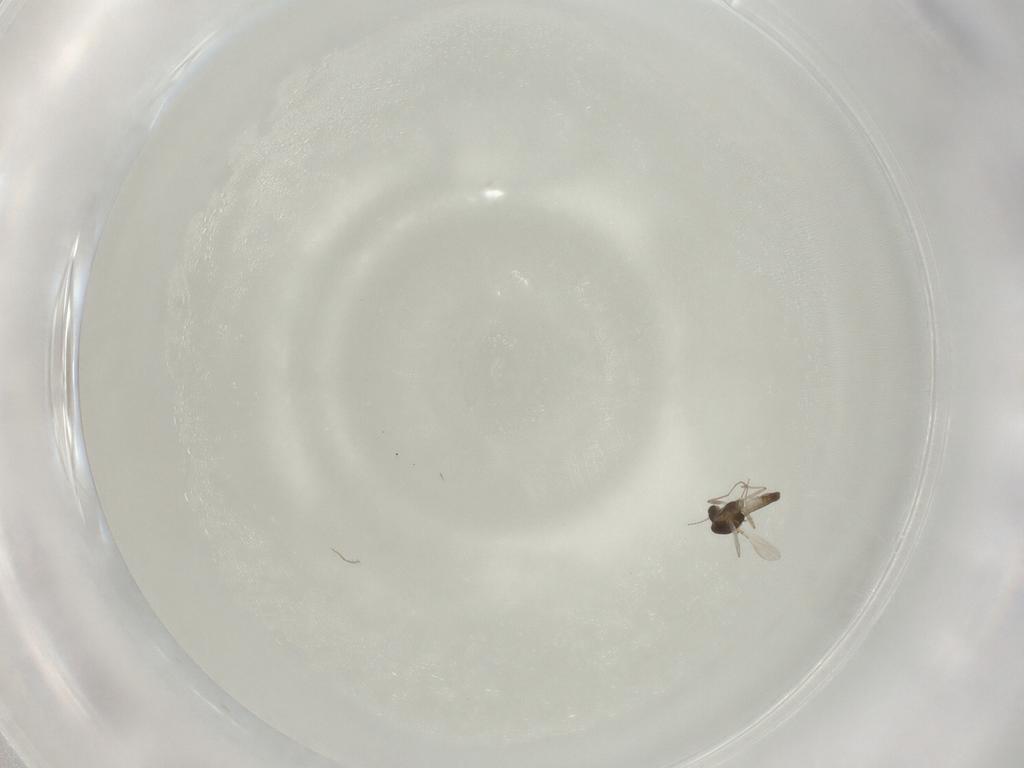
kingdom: Animalia
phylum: Arthropoda
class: Insecta
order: Diptera
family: Chironomidae
